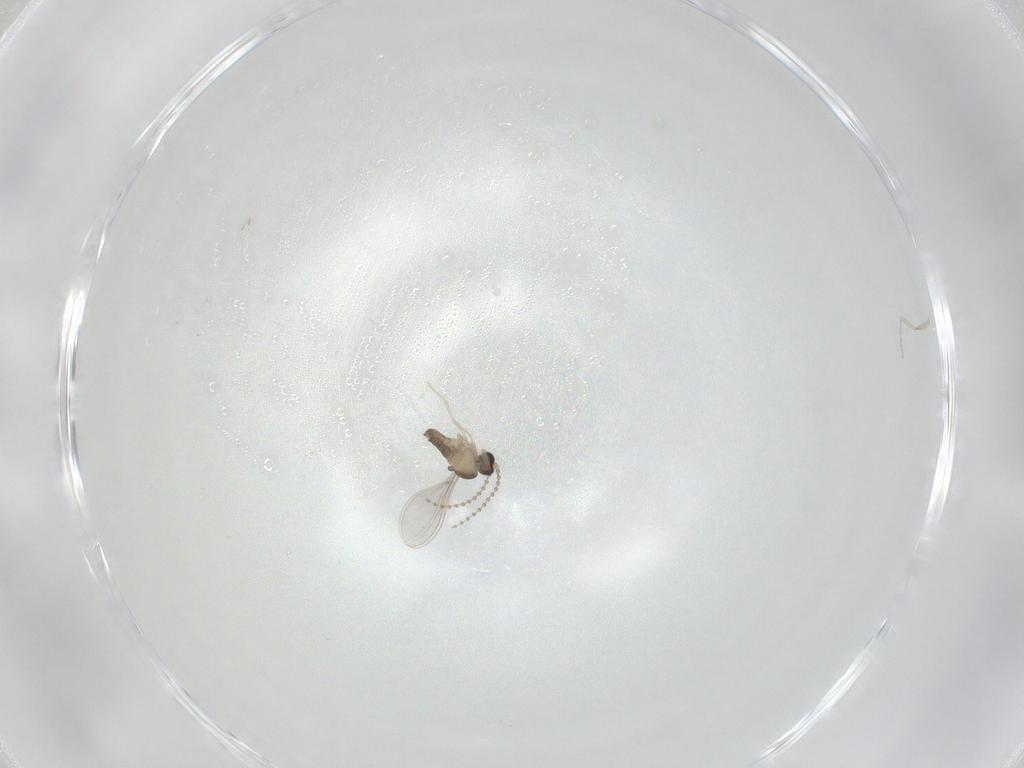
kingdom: Animalia
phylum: Arthropoda
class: Insecta
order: Diptera
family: Cecidomyiidae
